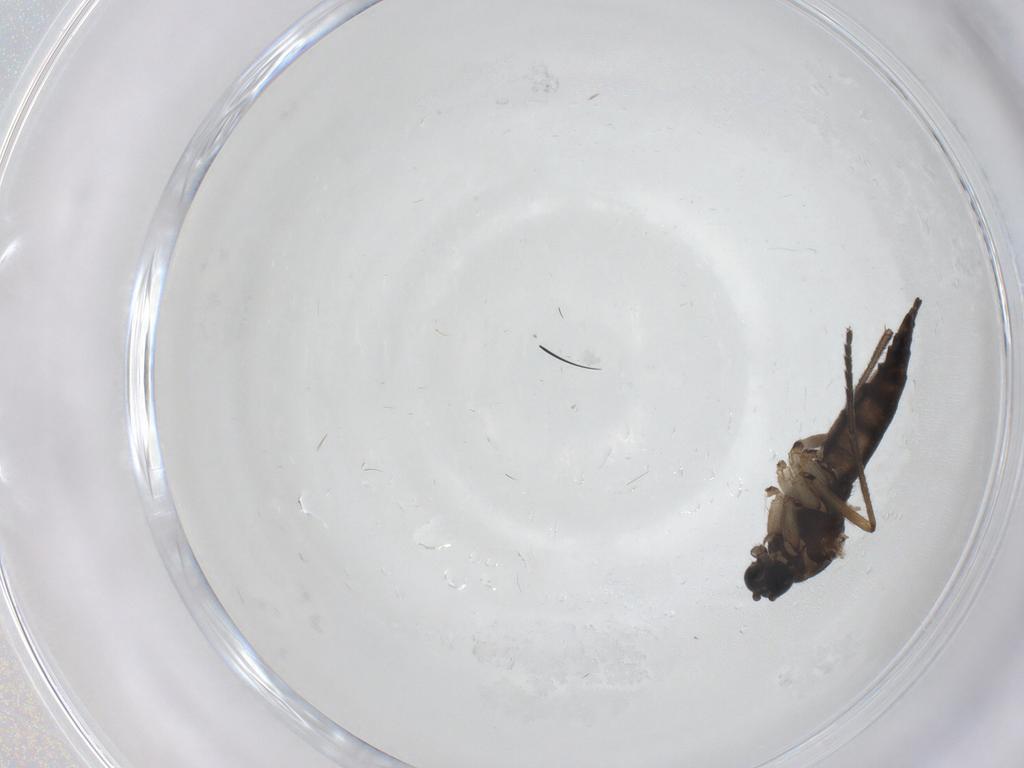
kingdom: Animalia
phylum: Arthropoda
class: Insecta
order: Diptera
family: Sciaridae
